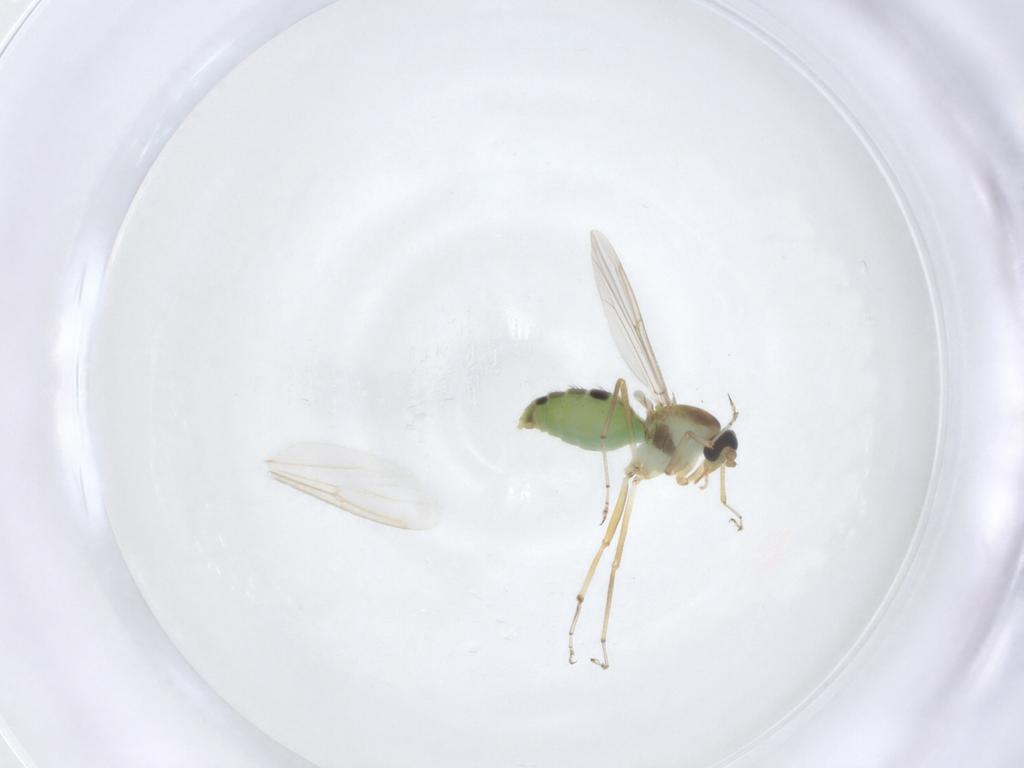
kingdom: Animalia
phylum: Arthropoda
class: Insecta
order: Diptera
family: Ceratopogonidae
